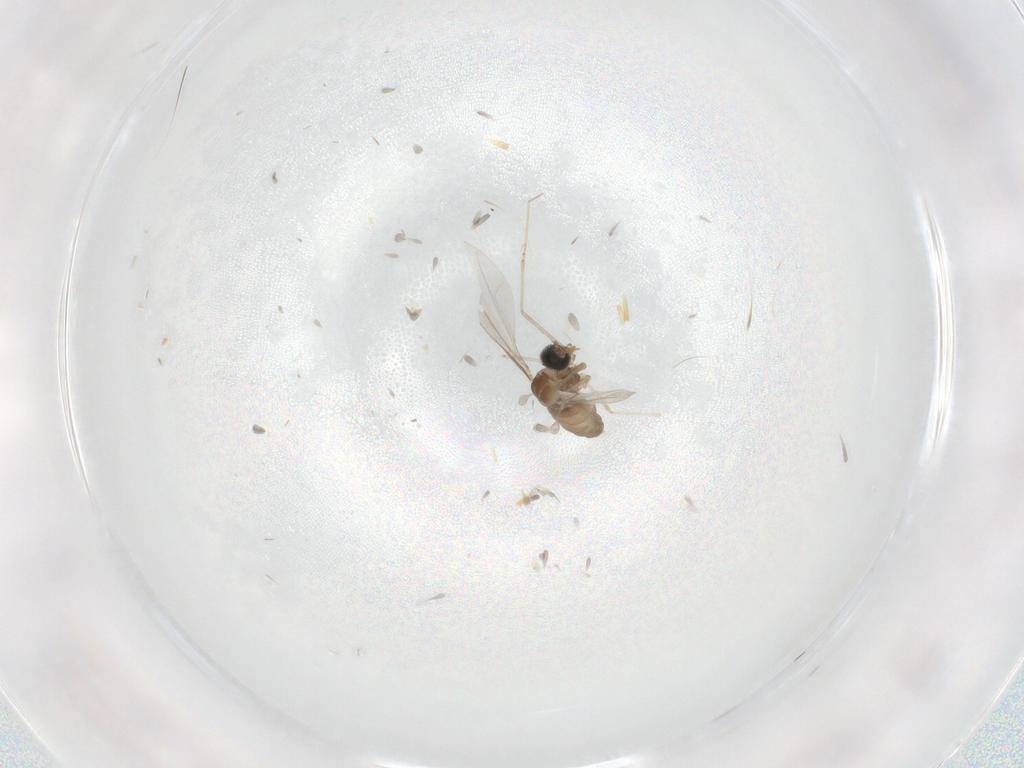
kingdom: Animalia
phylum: Arthropoda
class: Insecta
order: Diptera
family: Cecidomyiidae
